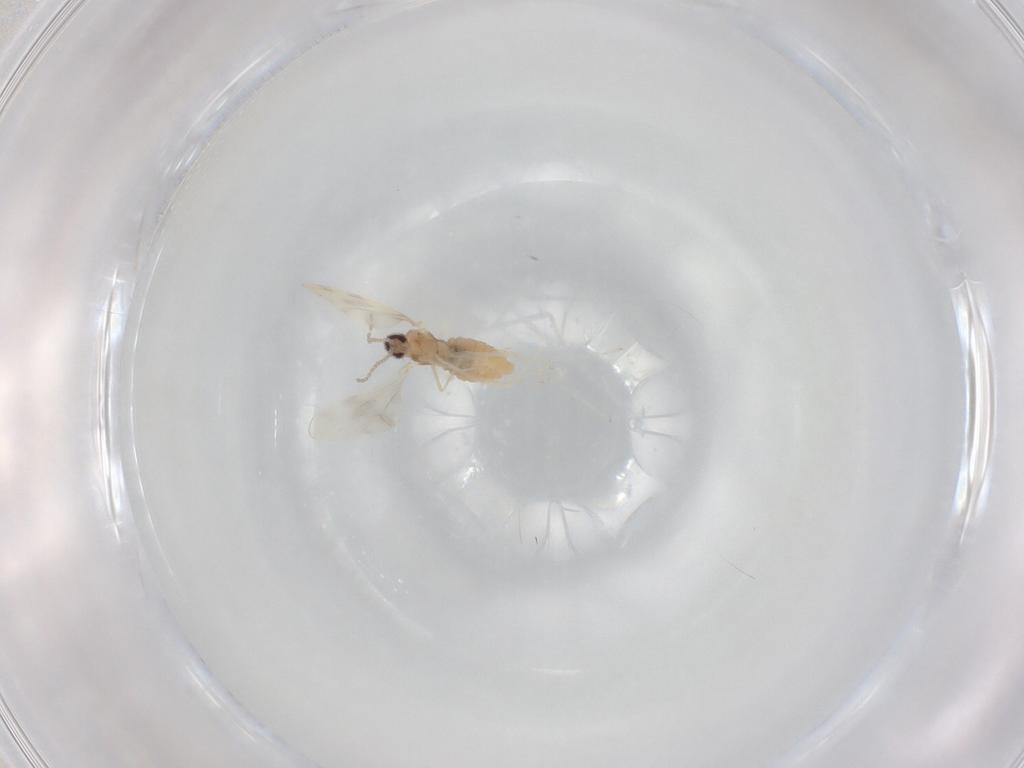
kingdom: Animalia
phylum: Arthropoda
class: Insecta
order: Diptera
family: Cecidomyiidae
